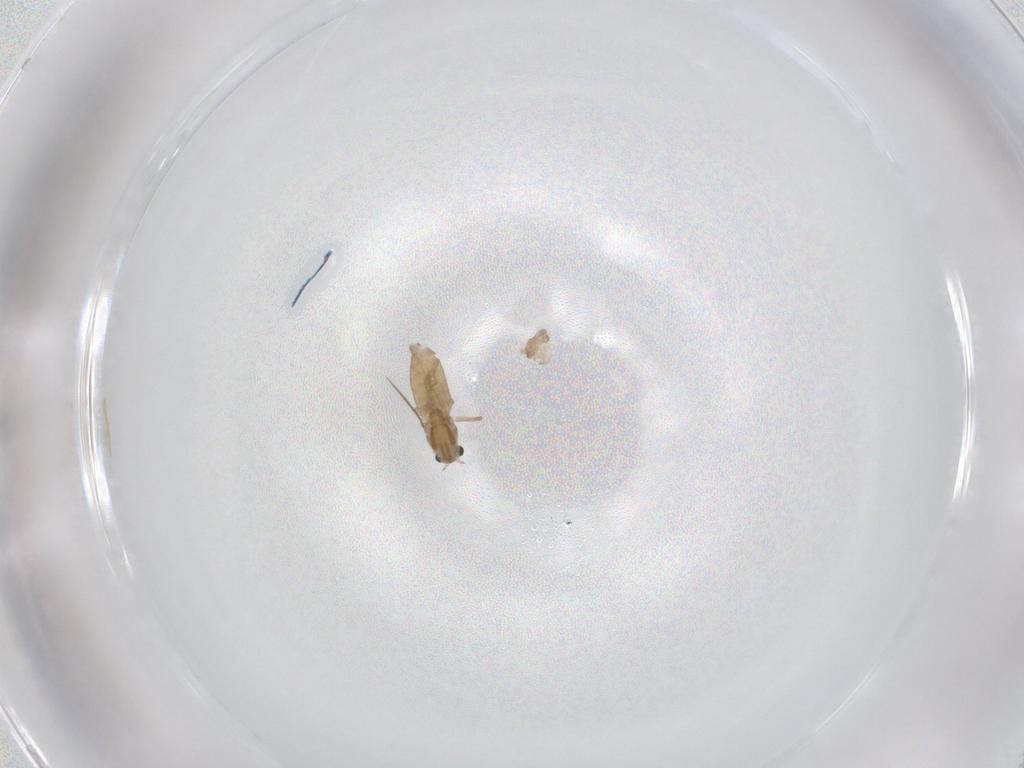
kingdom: Animalia
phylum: Arthropoda
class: Insecta
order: Diptera
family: Chironomidae
